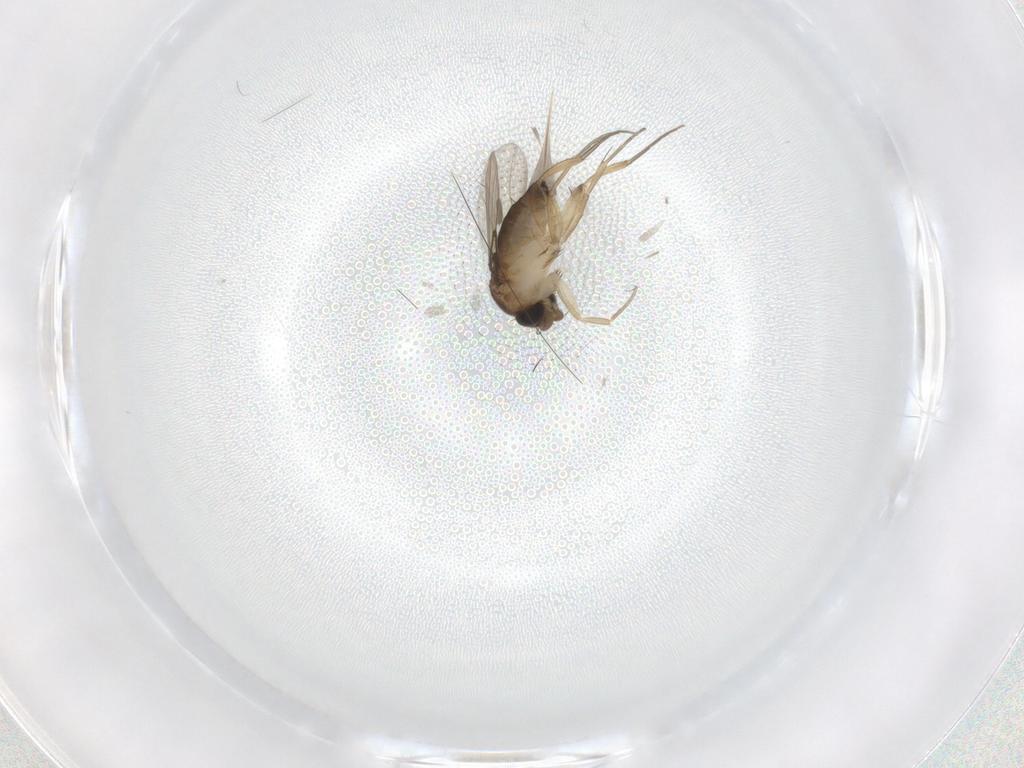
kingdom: Animalia
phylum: Arthropoda
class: Insecta
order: Diptera
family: Phoridae
